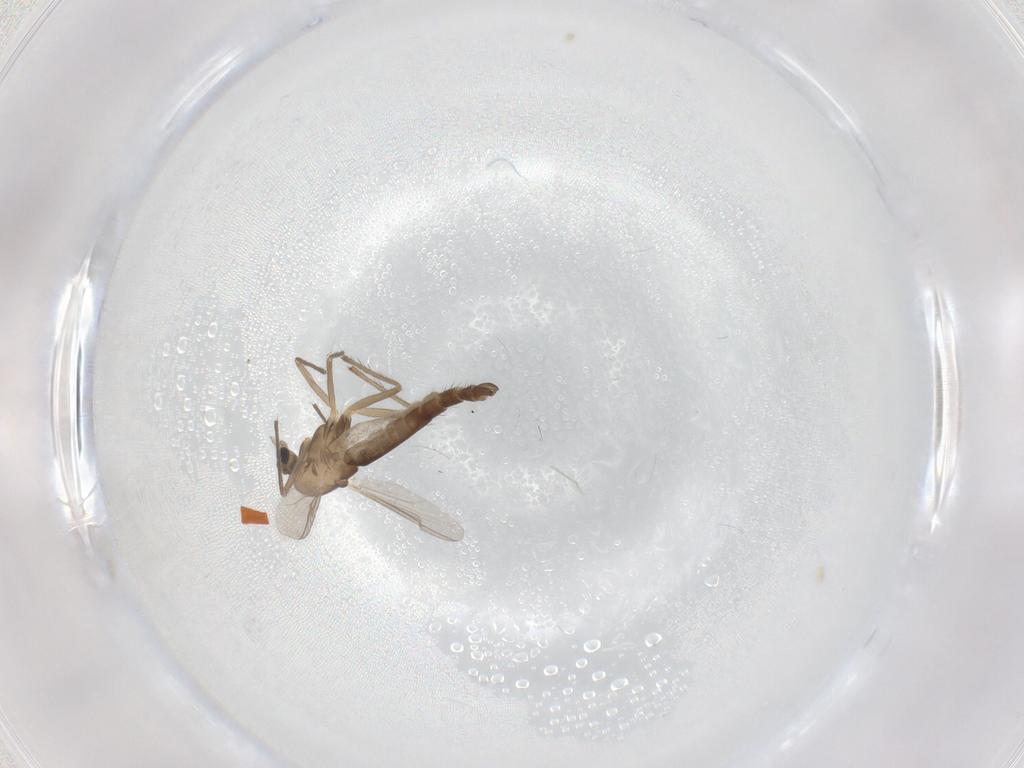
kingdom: Animalia
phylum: Arthropoda
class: Insecta
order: Diptera
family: Chironomidae
